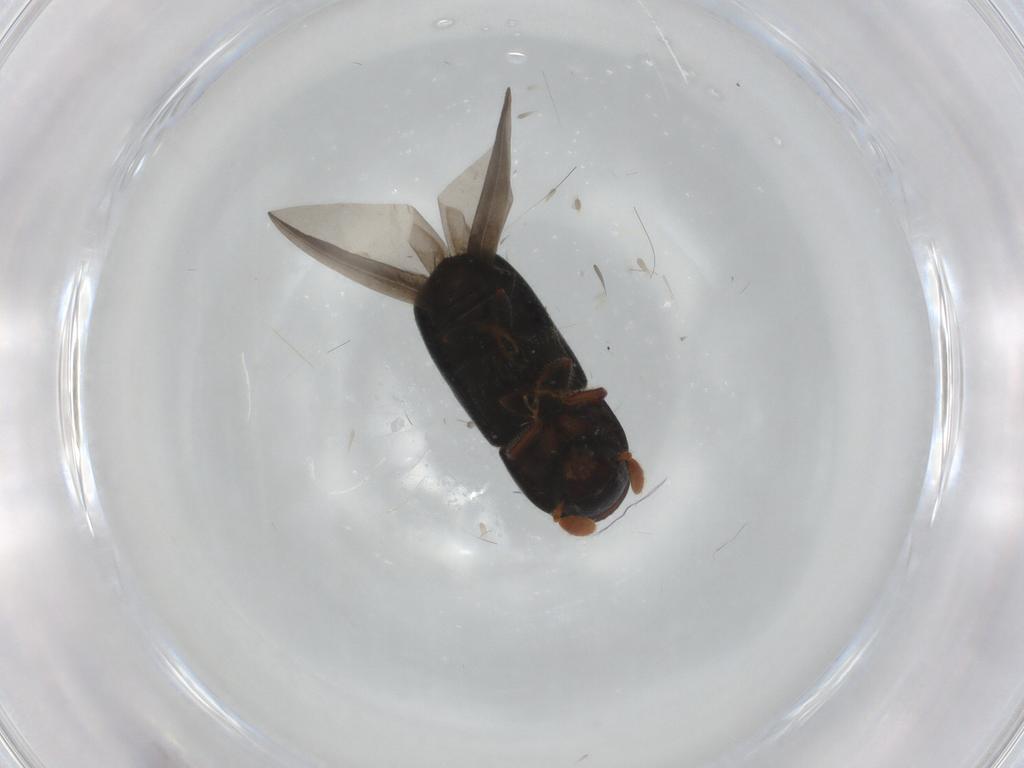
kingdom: Animalia
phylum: Arthropoda
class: Insecta
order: Coleoptera
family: Curculionidae
